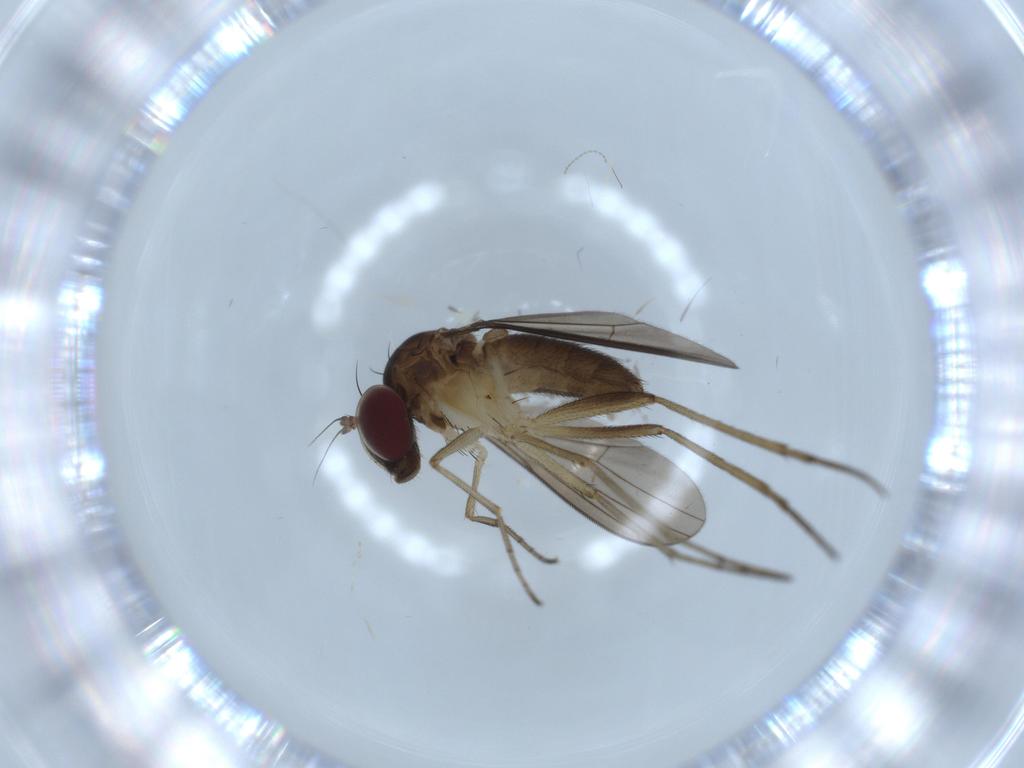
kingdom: Animalia
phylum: Arthropoda
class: Insecta
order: Diptera
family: Dolichopodidae
